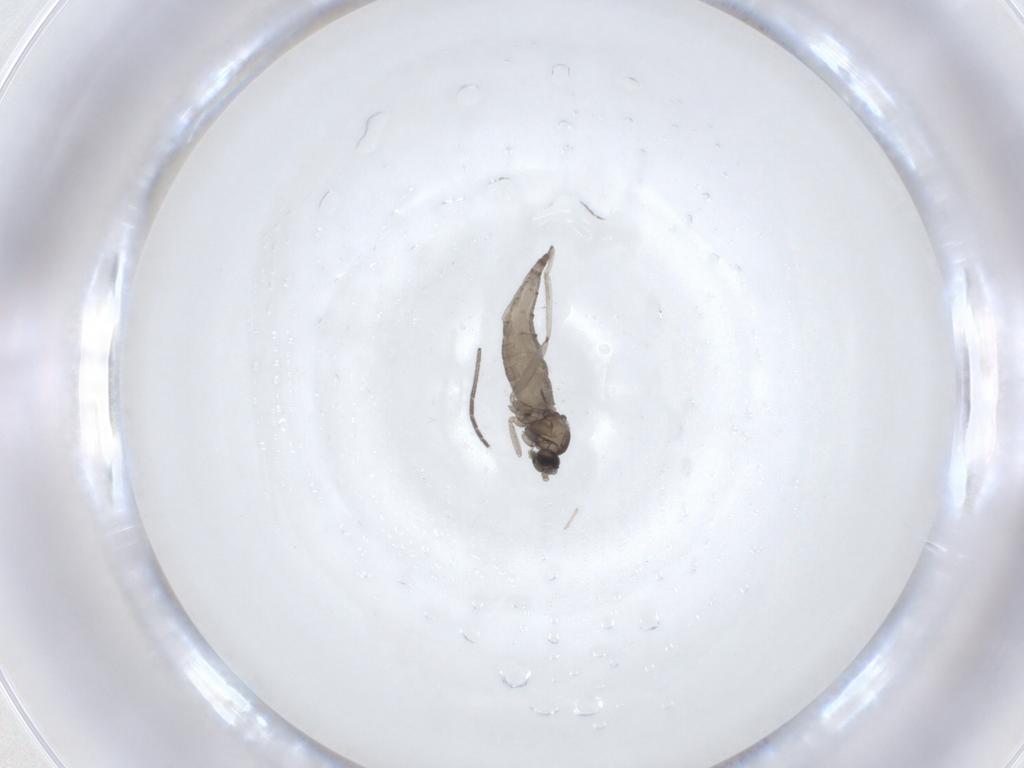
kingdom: Animalia
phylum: Arthropoda
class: Insecta
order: Diptera
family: Cecidomyiidae
